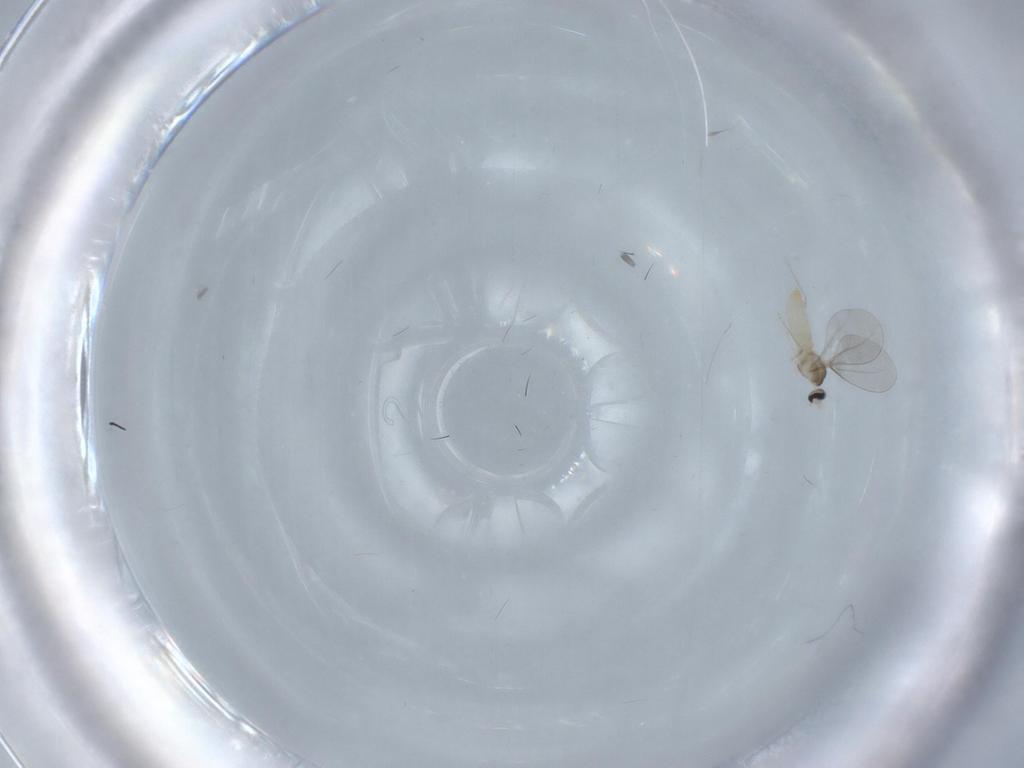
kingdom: Animalia
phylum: Arthropoda
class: Insecta
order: Diptera
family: Cecidomyiidae
